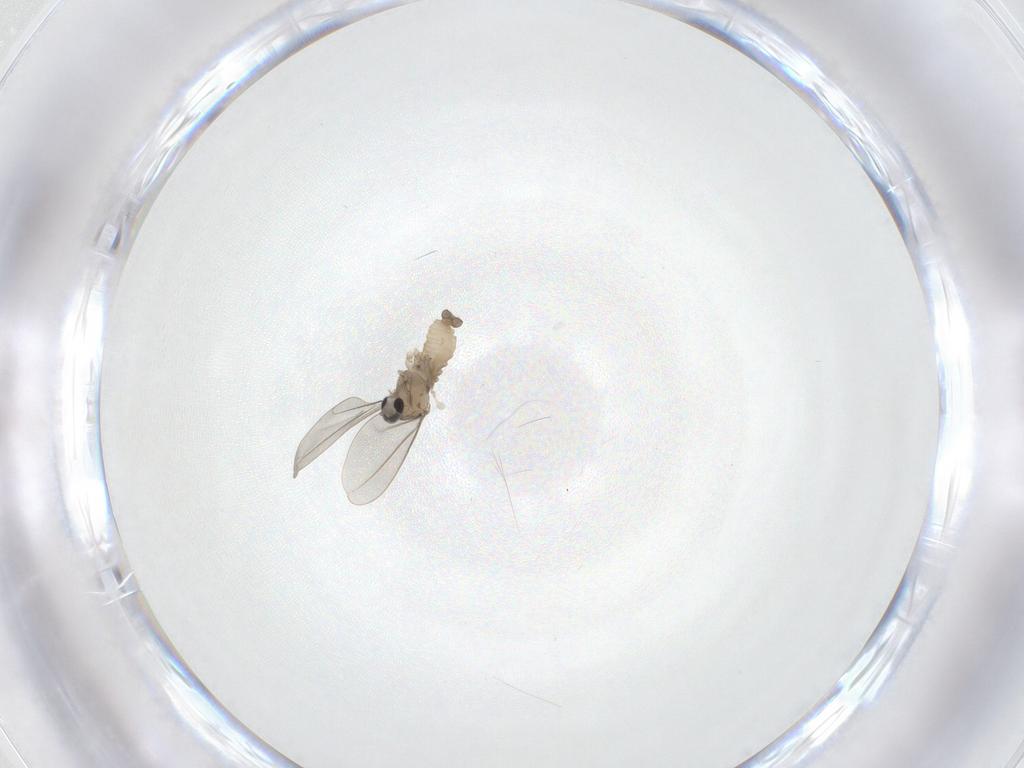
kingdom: Animalia
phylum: Arthropoda
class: Insecta
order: Diptera
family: Cecidomyiidae
